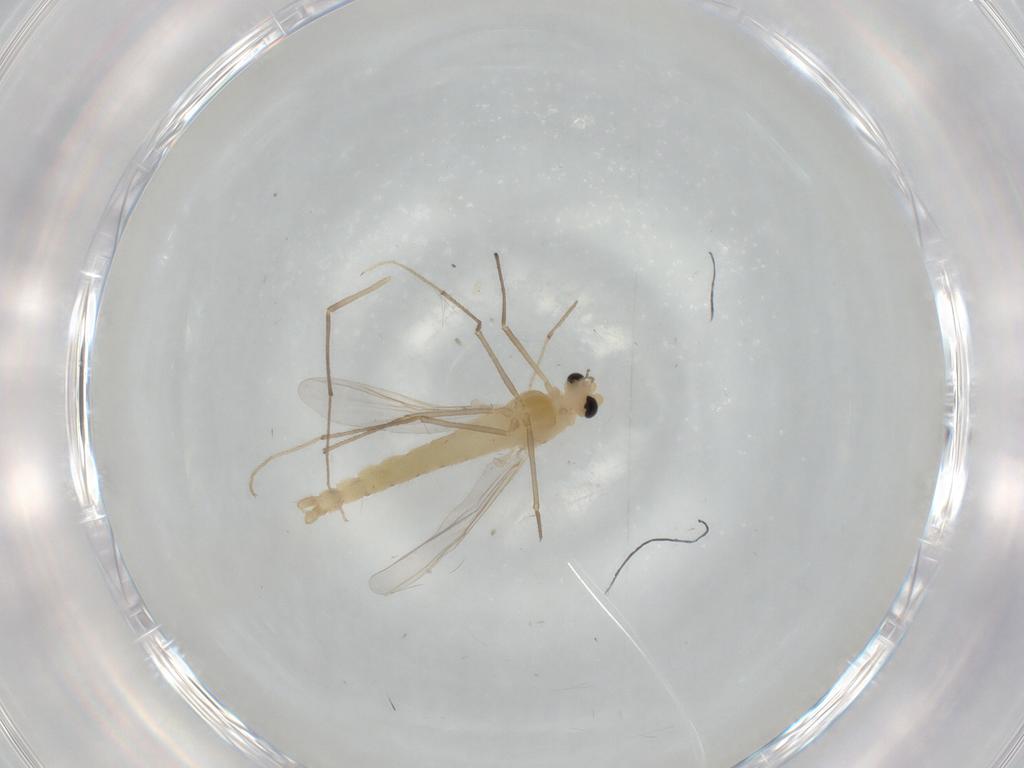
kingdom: Animalia
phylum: Arthropoda
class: Insecta
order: Diptera
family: Chironomidae
